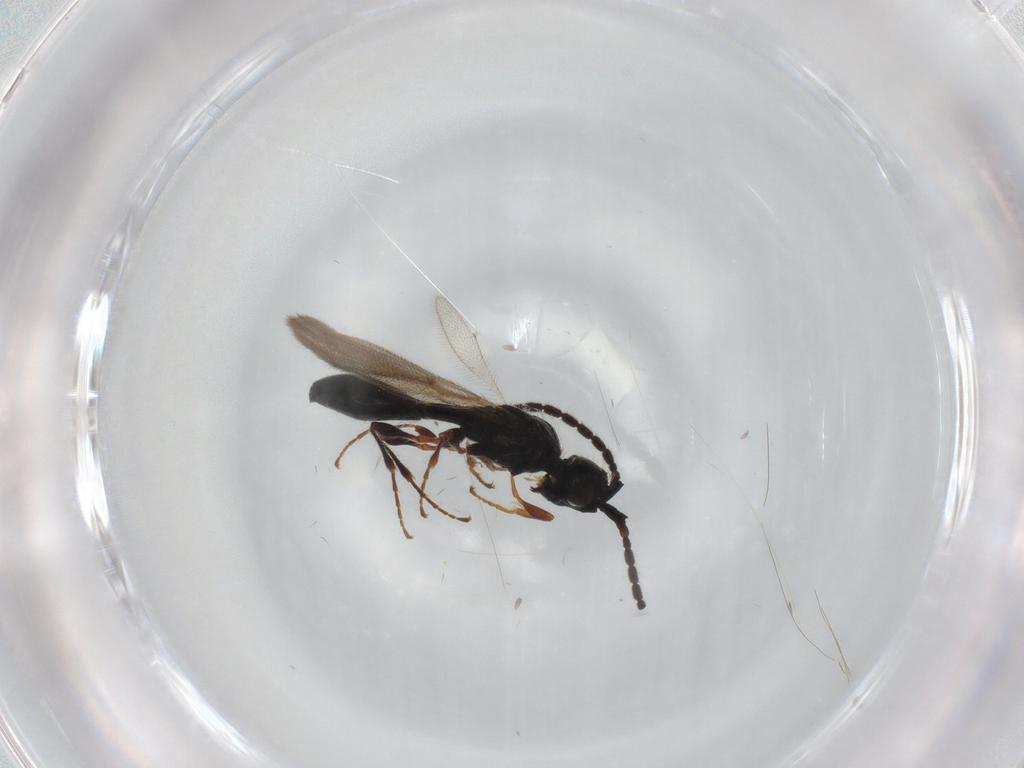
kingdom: Animalia
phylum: Arthropoda
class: Insecta
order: Hymenoptera
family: Diapriidae
